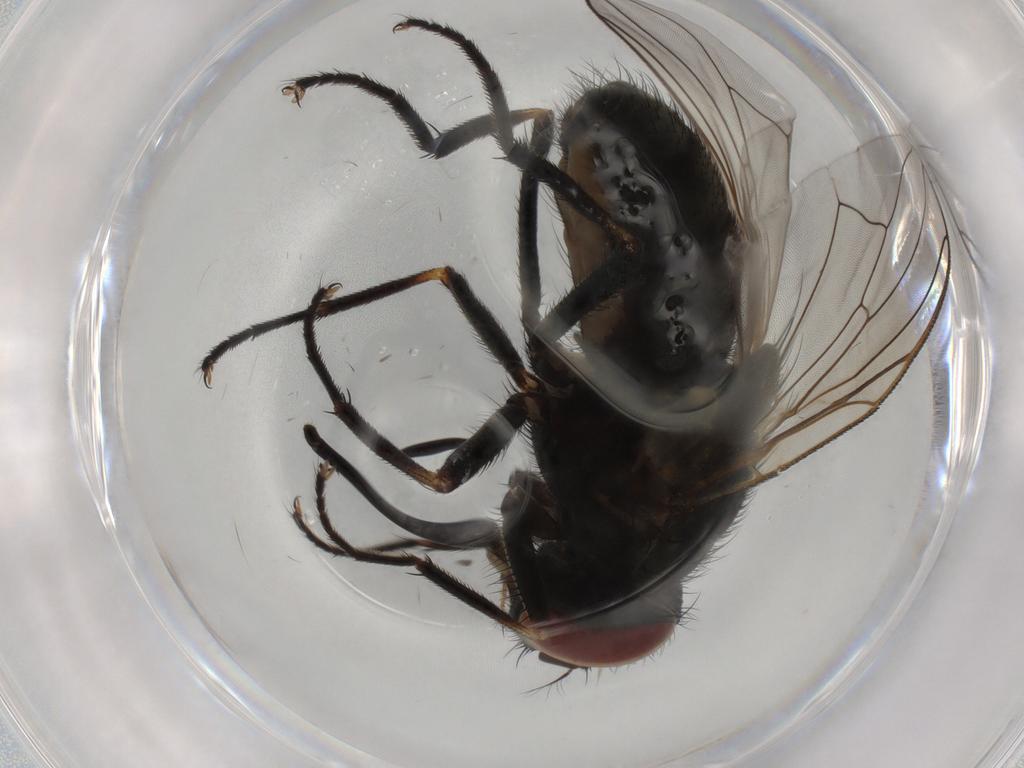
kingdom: Animalia
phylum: Arthropoda
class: Insecta
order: Diptera
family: Muscidae
